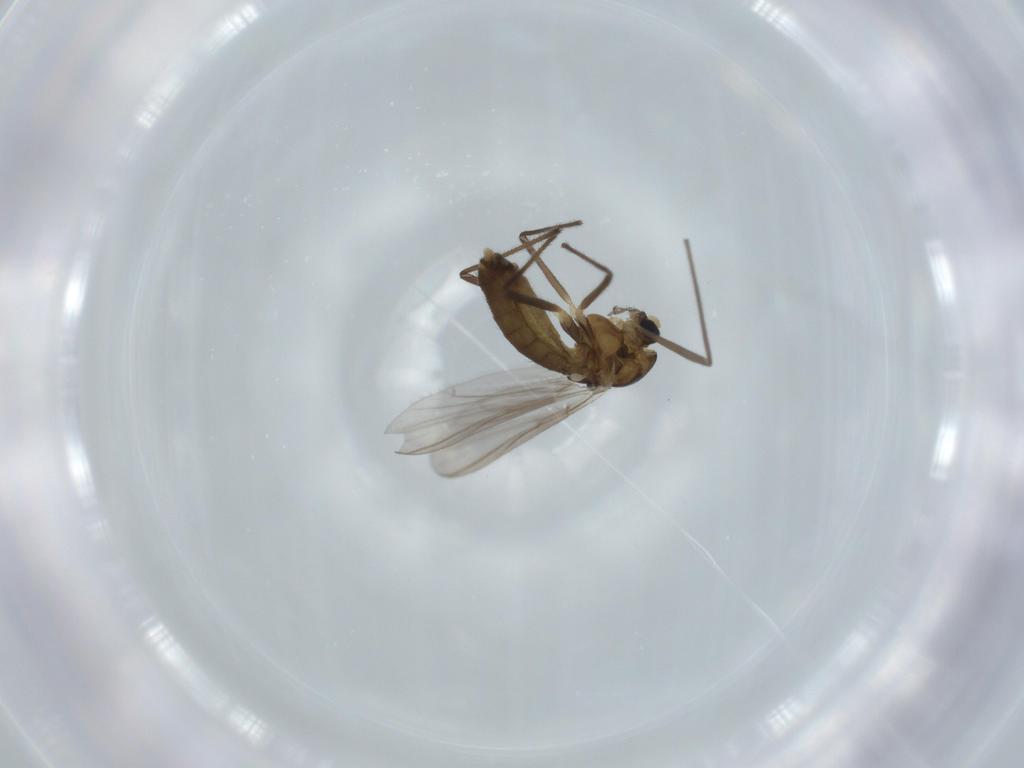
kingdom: Animalia
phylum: Arthropoda
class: Insecta
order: Diptera
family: Chironomidae
